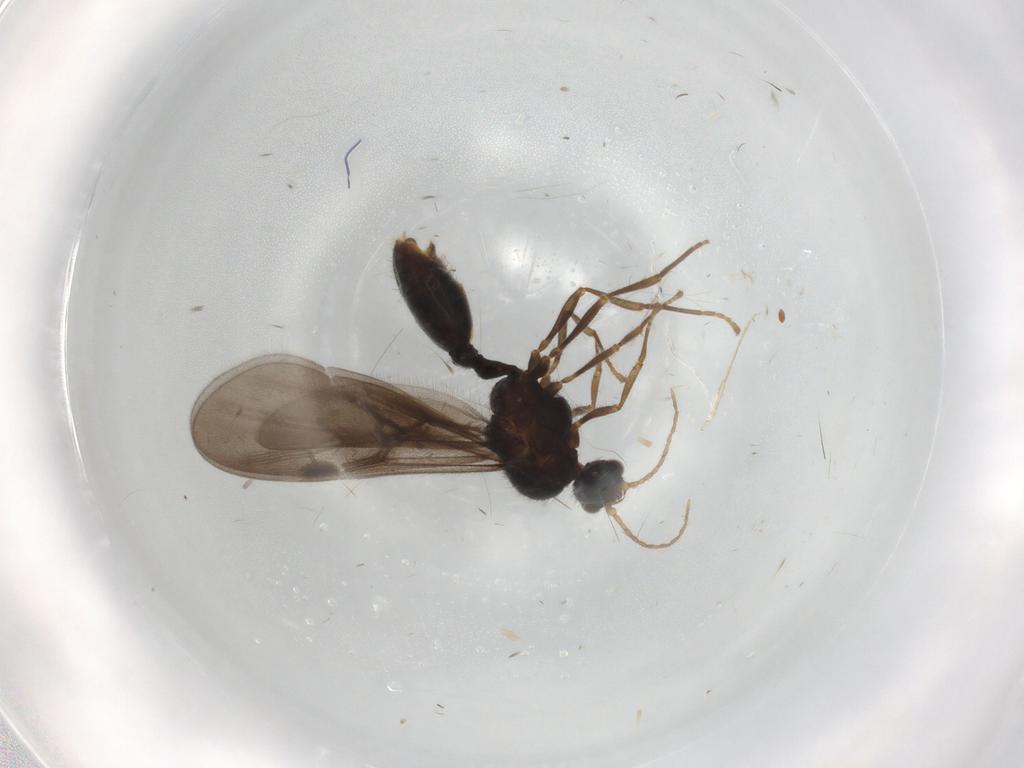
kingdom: Animalia
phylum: Arthropoda
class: Insecta
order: Hymenoptera
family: Formicidae
